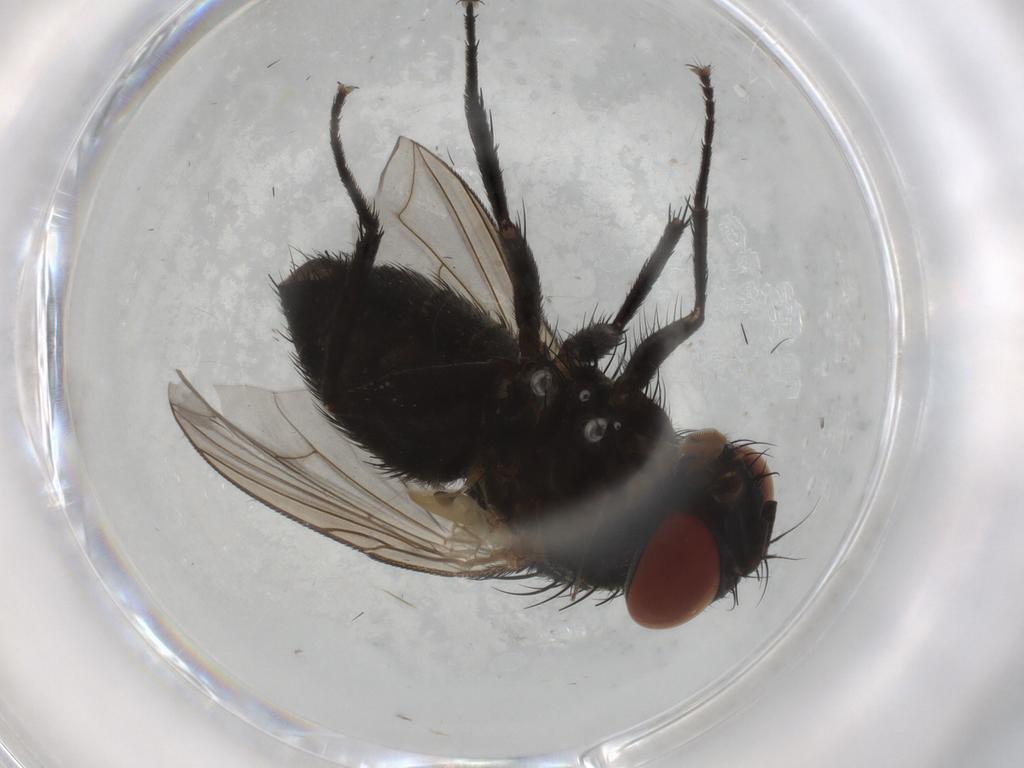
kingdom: Animalia
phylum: Arthropoda
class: Insecta
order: Diptera
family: Tachinidae
